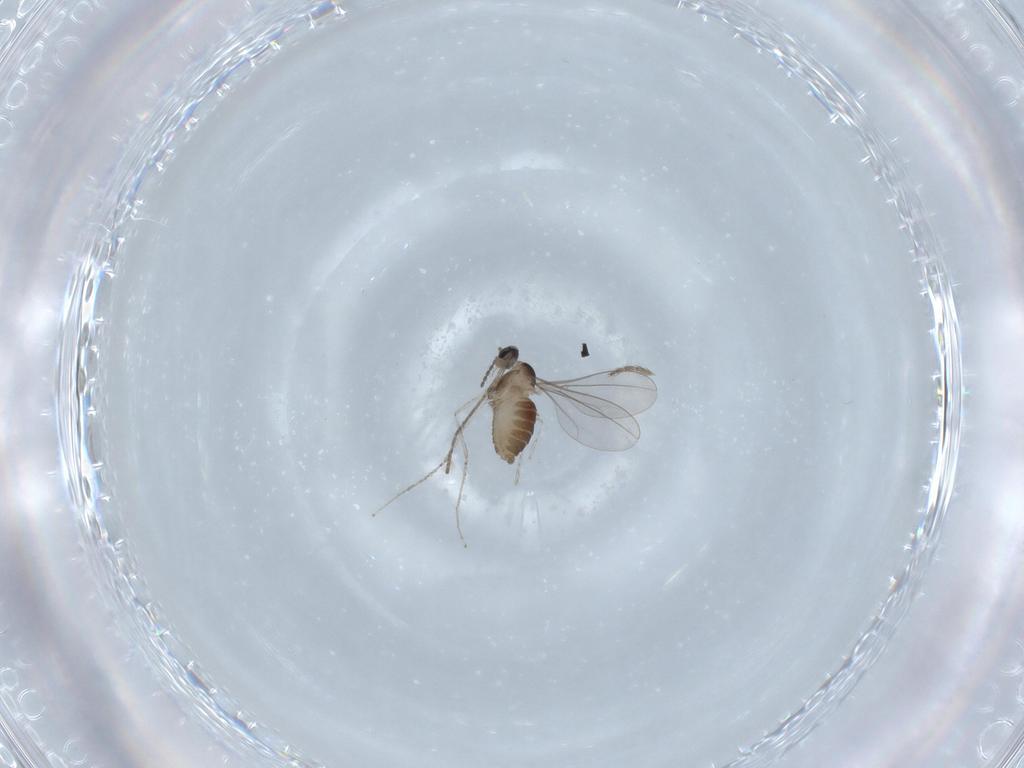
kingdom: Animalia
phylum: Arthropoda
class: Insecta
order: Diptera
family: Cecidomyiidae
